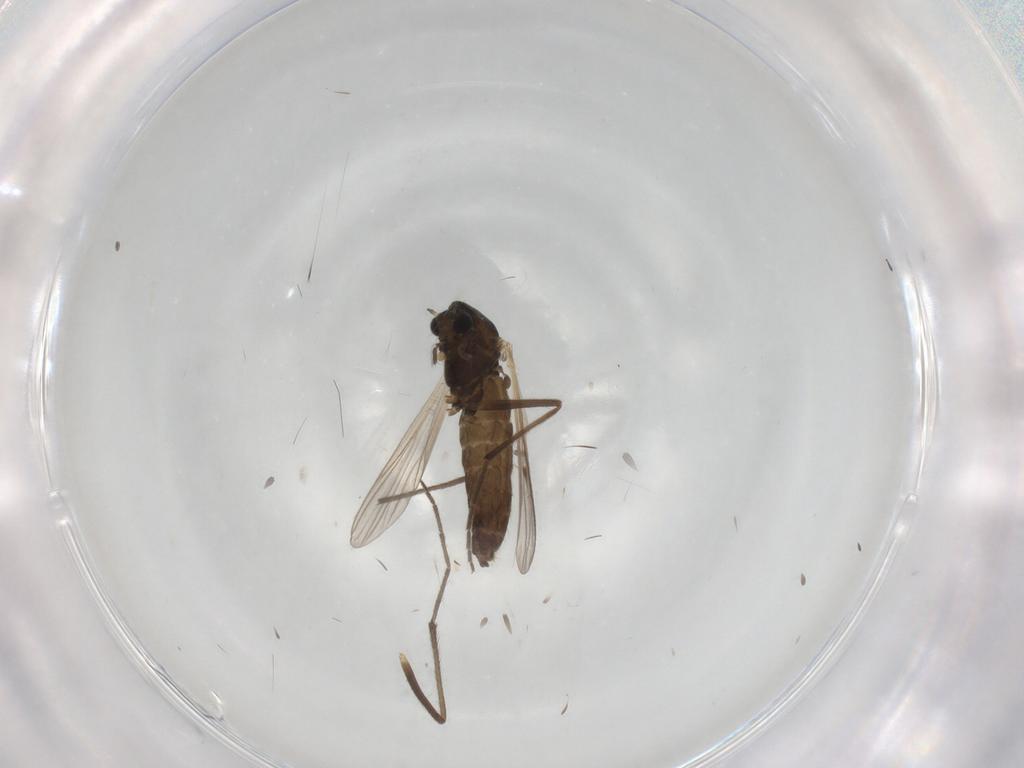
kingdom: Animalia
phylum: Arthropoda
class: Insecta
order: Diptera
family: Chironomidae
